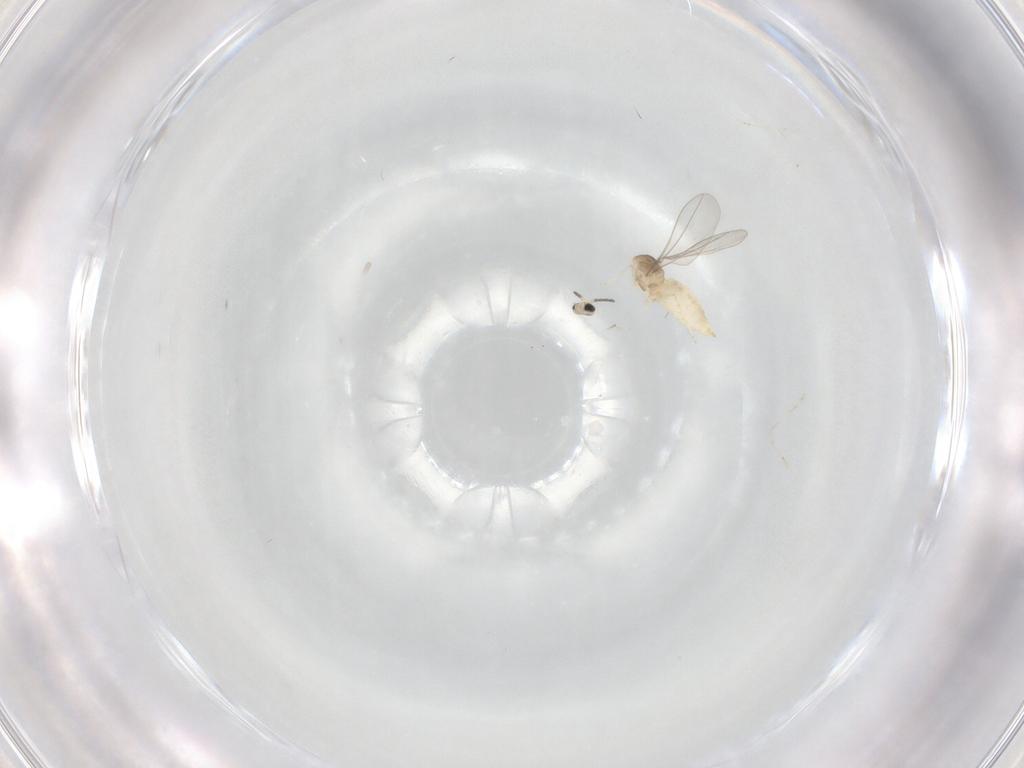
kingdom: Animalia
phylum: Arthropoda
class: Insecta
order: Diptera
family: Cecidomyiidae
